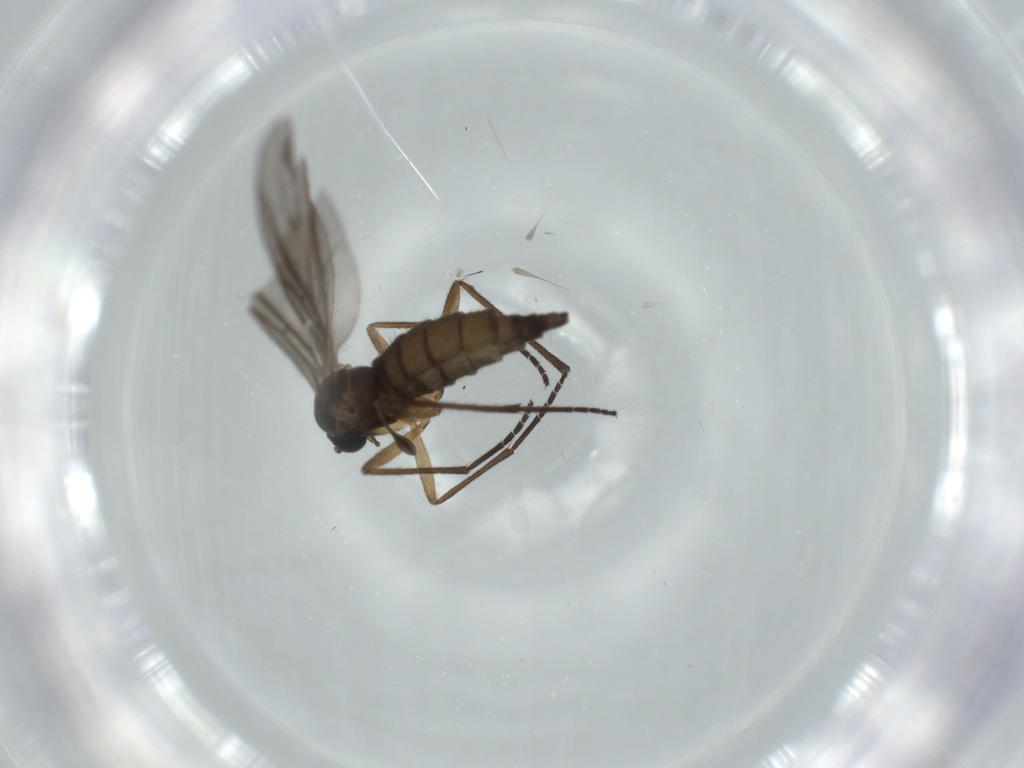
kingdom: Animalia
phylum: Arthropoda
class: Insecta
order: Diptera
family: Sciaridae
